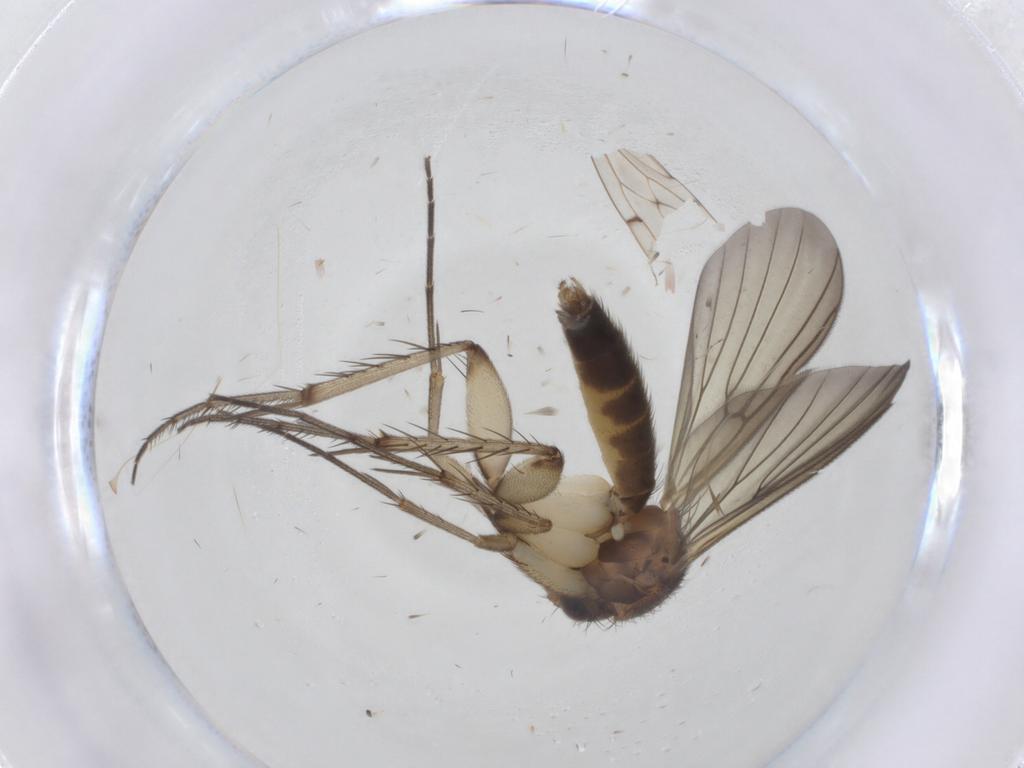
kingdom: Animalia
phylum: Arthropoda
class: Insecta
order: Diptera
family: Mycetophilidae
